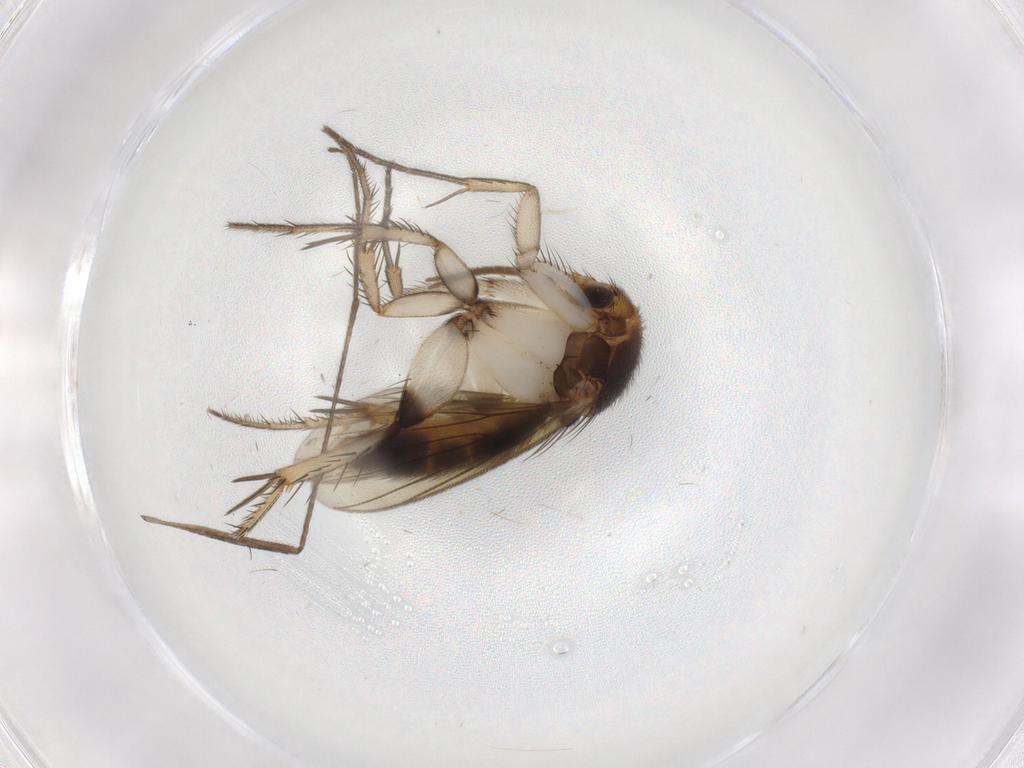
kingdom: Animalia
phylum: Arthropoda
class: Insecta
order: Diptera
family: Mycetophilidae
